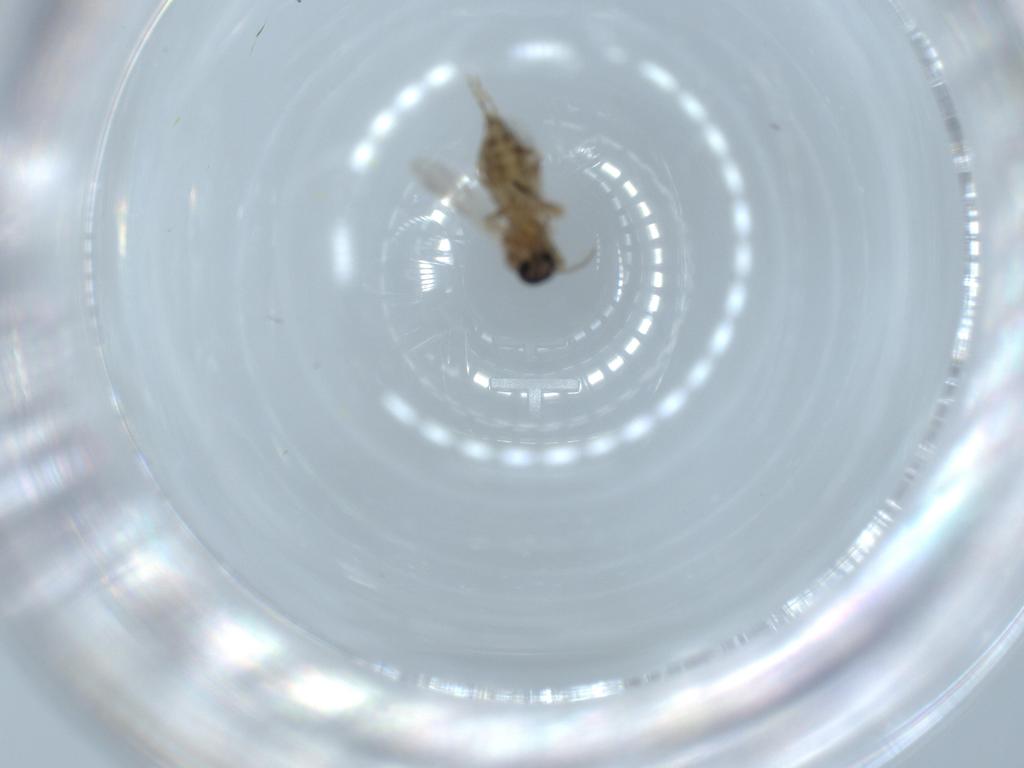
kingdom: Animalia
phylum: Arthropoda
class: Insecta
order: Diptera
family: Ceratopogonidae
